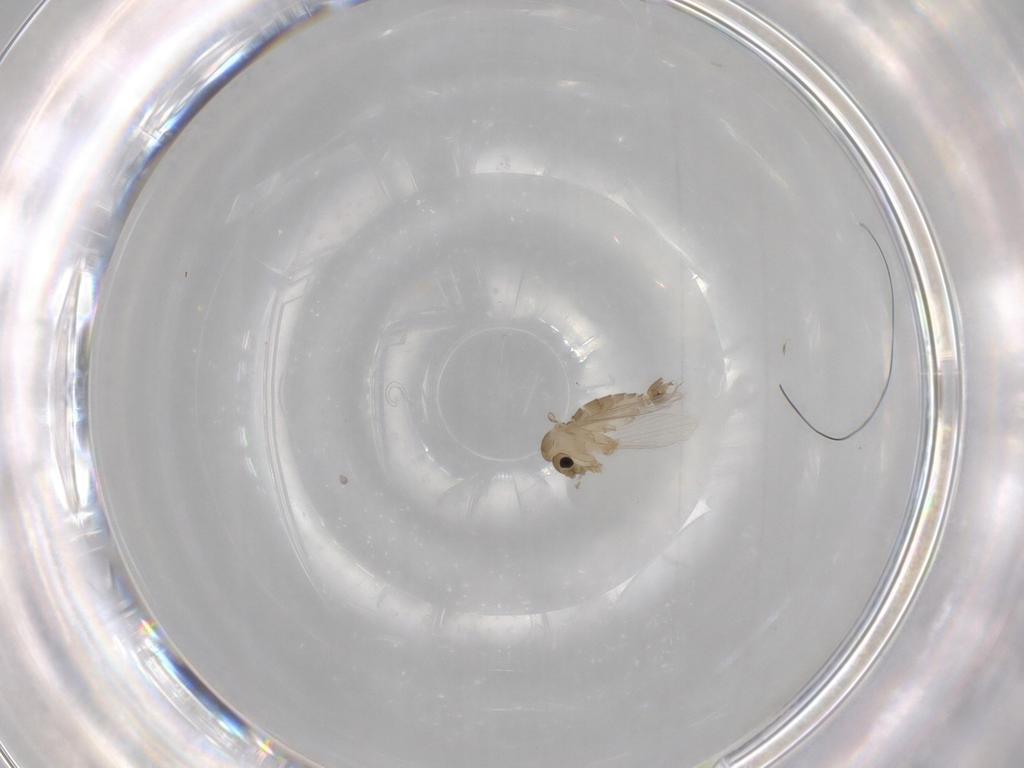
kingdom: Animalia
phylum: Arthropoda
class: Insecta
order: Diptera
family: Psychodidae
